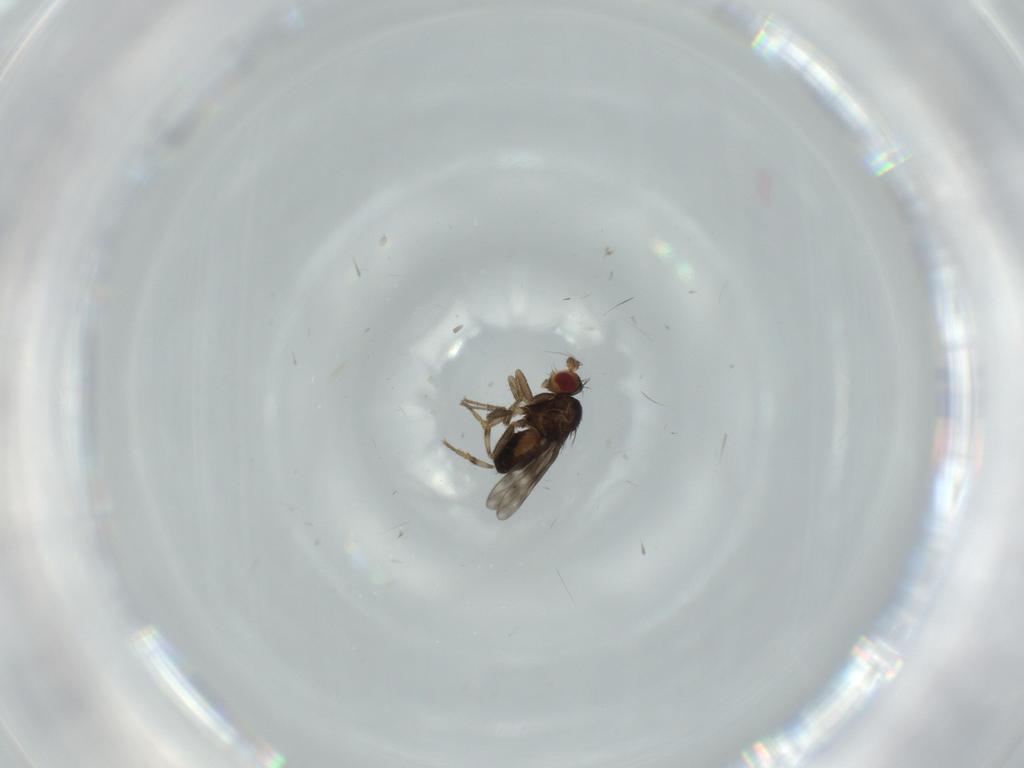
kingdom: Animalia
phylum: Arthropoda
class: Insecta
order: Diptera
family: Sphaeroceridae
